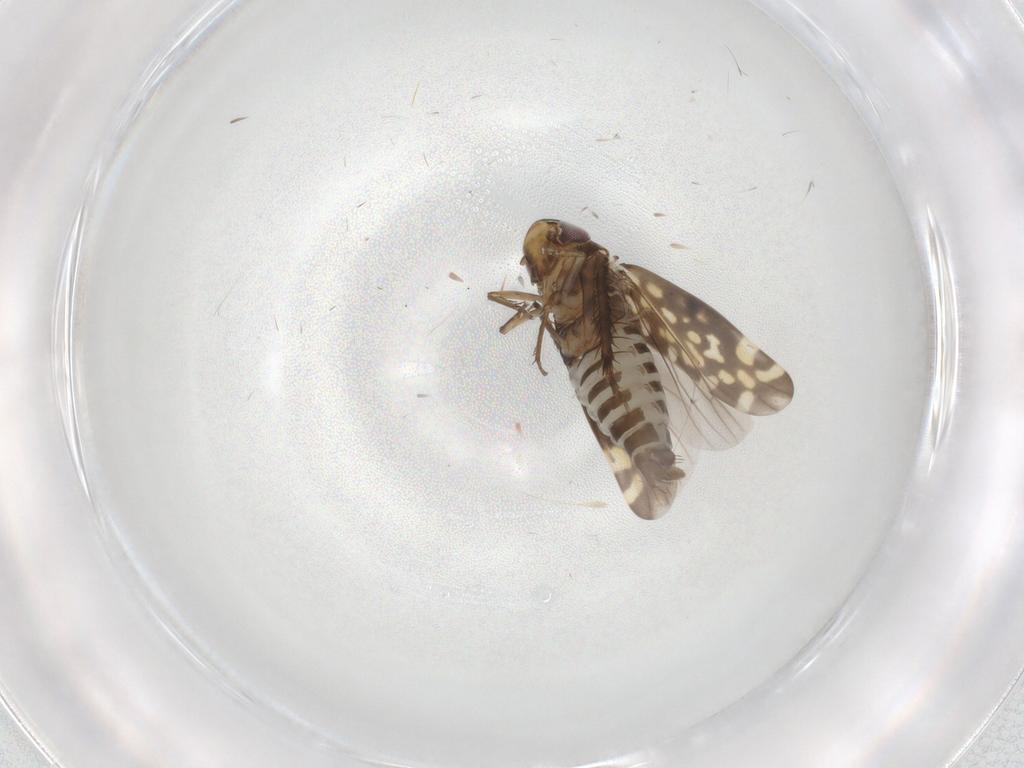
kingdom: Animalia
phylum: Arthropoda
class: Insecta
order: Hemiptera
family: Cicadellidae
